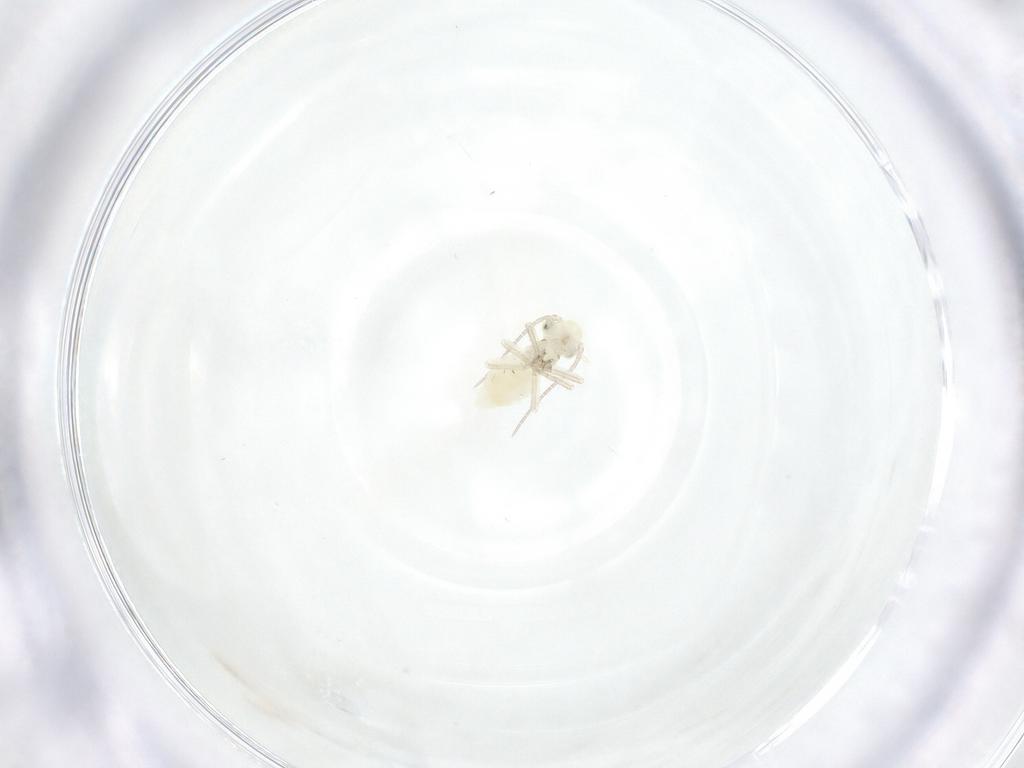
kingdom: Animalia
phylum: Arthropoda
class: Insecta
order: Psocodea
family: Caeciliusidae
